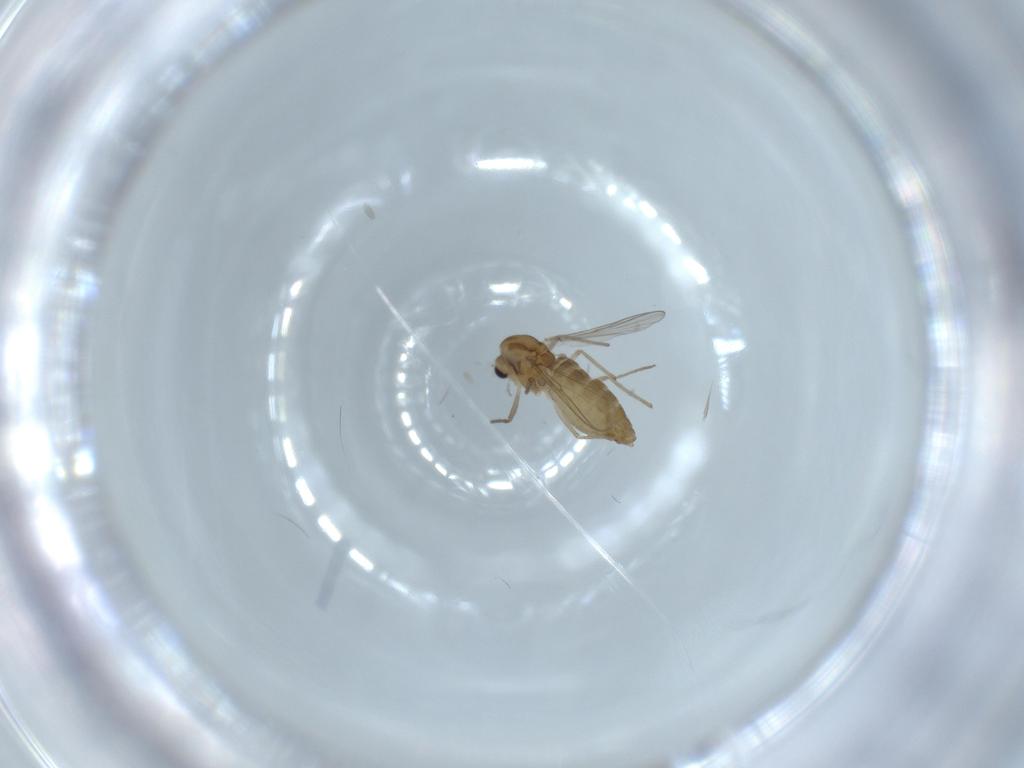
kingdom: Animalia
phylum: Arthropoda
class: Insecta
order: Diptera
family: Chironomidae
